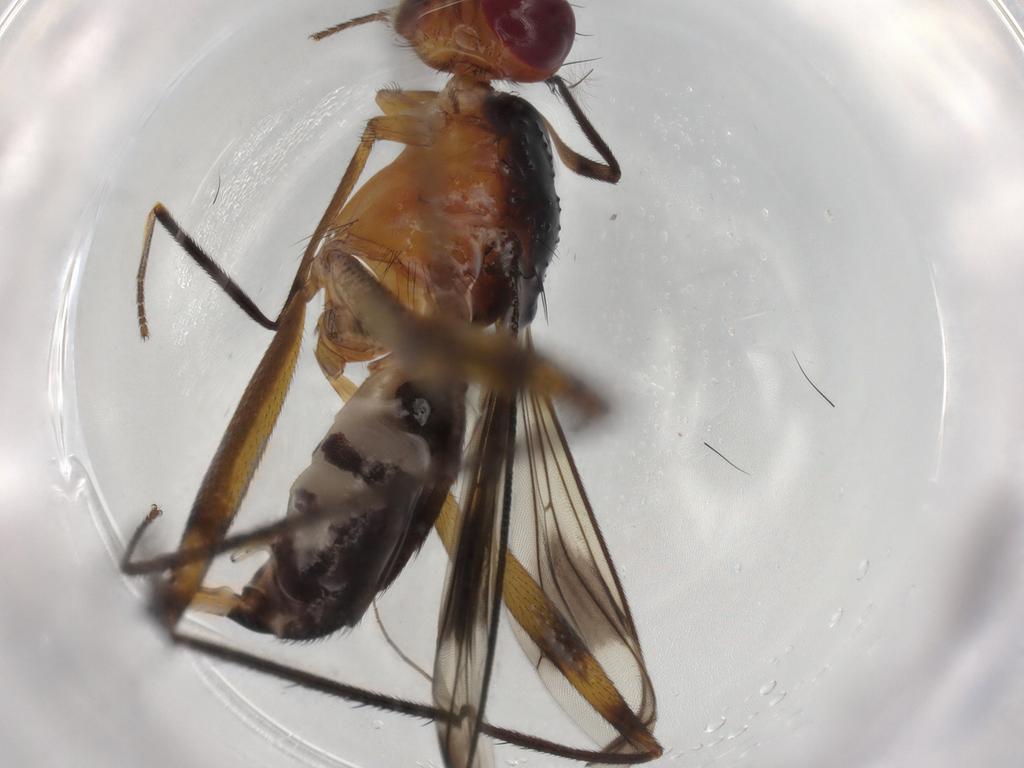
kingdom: Animalia
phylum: Arthropoda
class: Insecta
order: Diptera
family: Micropezidae
